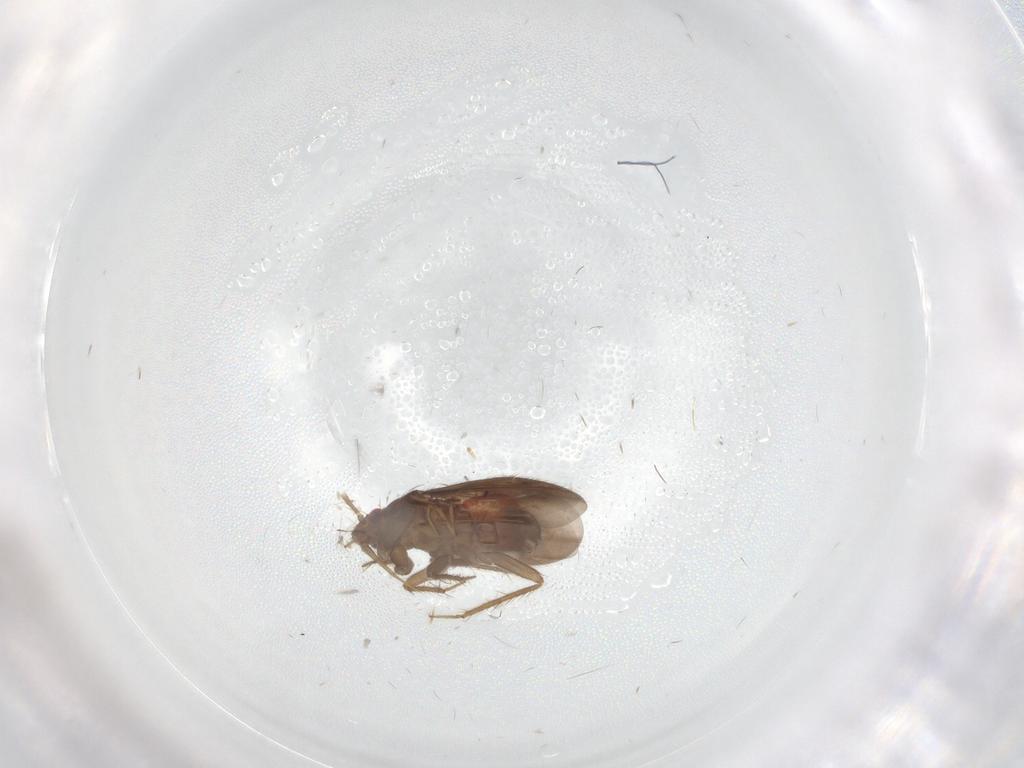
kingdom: Animalia
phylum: Arthropoda
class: Insecta
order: Hemiptera
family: Ceratocombidae
